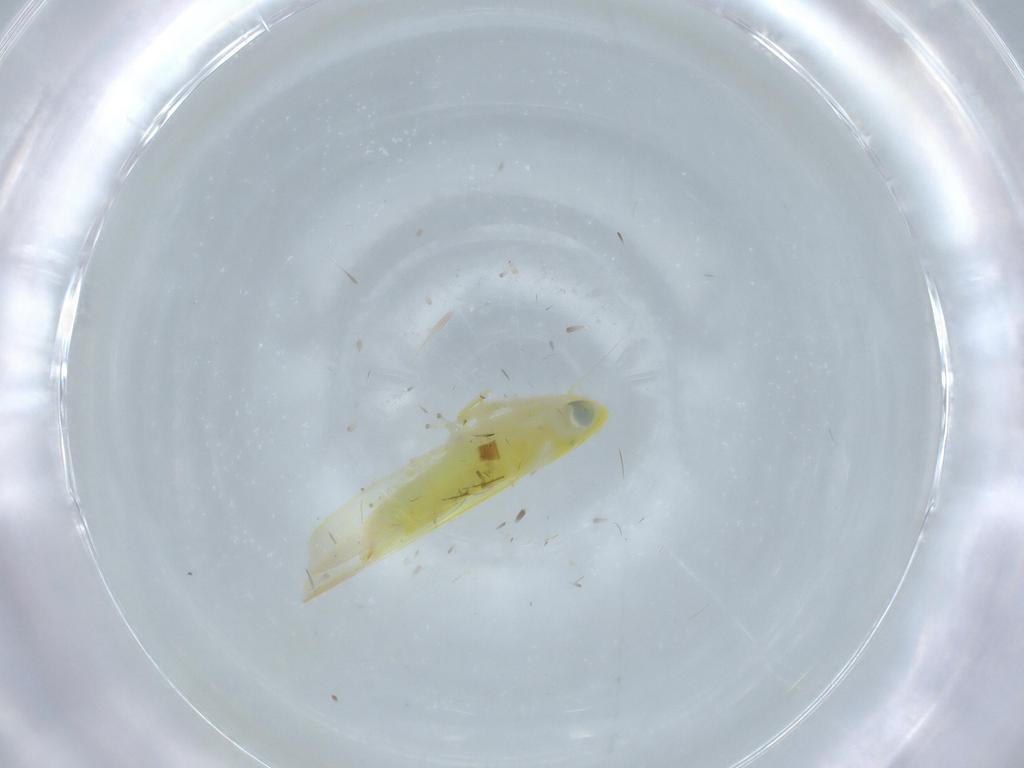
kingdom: Animalia
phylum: Arthropoda
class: Insecta
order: Hemiptera
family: Cicadellidae
